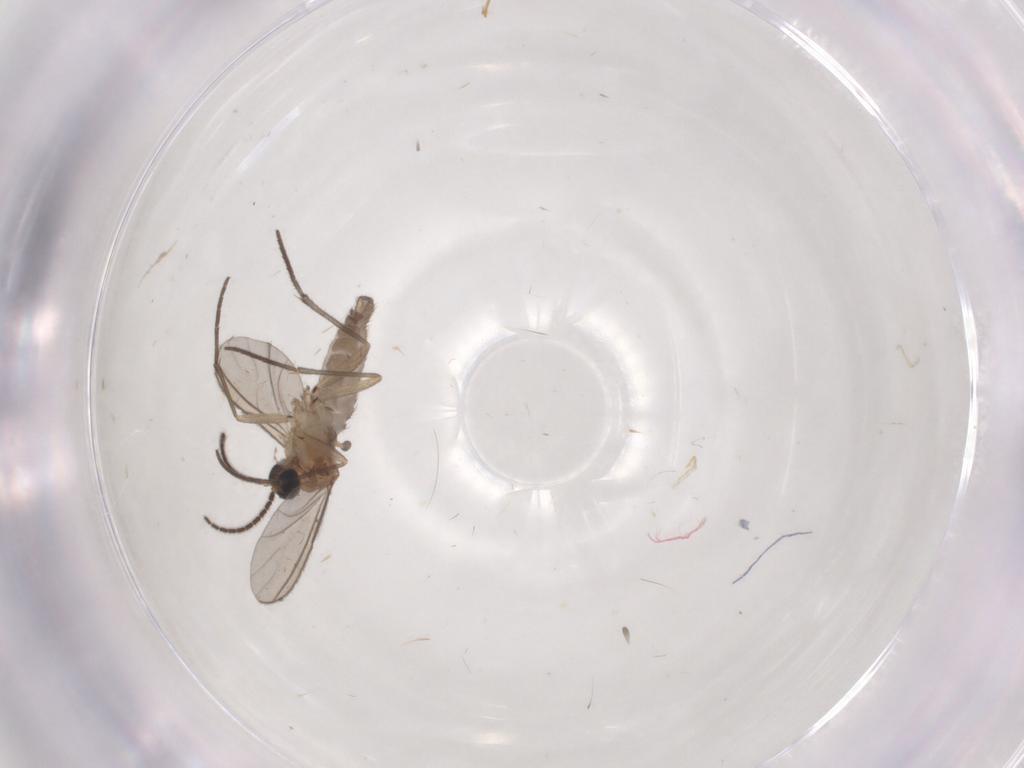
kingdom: Animalia
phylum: Arthropoda
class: Insecta
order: Diptera
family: Sciaridae
